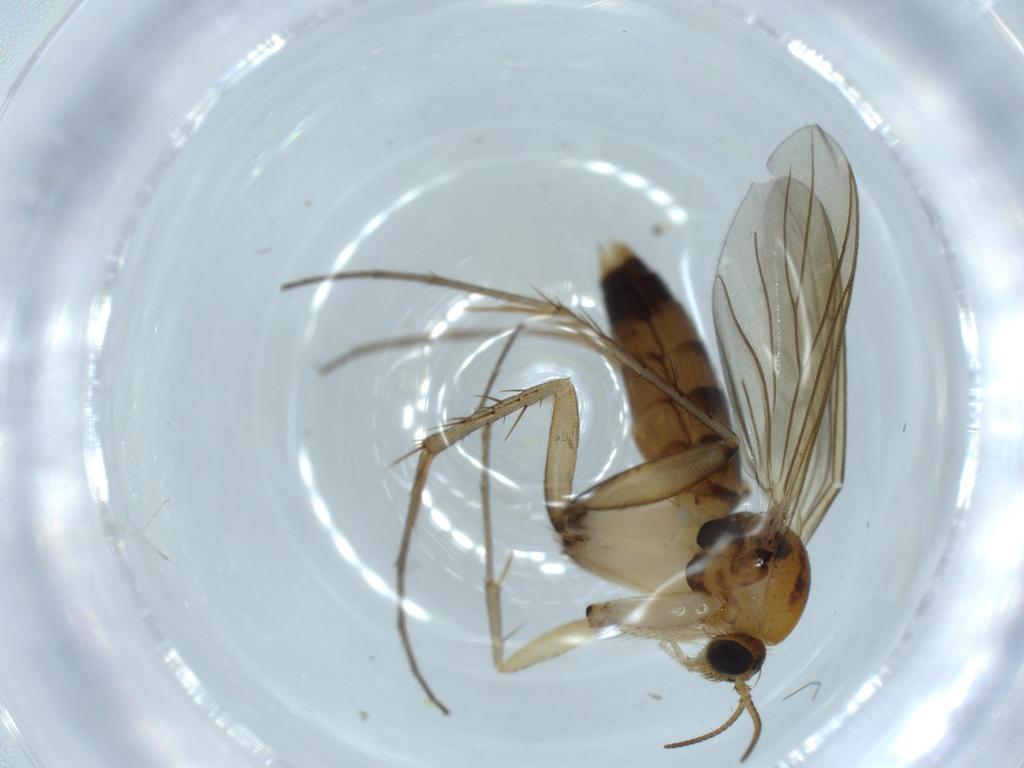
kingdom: Animalia
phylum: Arthropoda
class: Insecta
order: Diptera
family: Mycetophilidae
